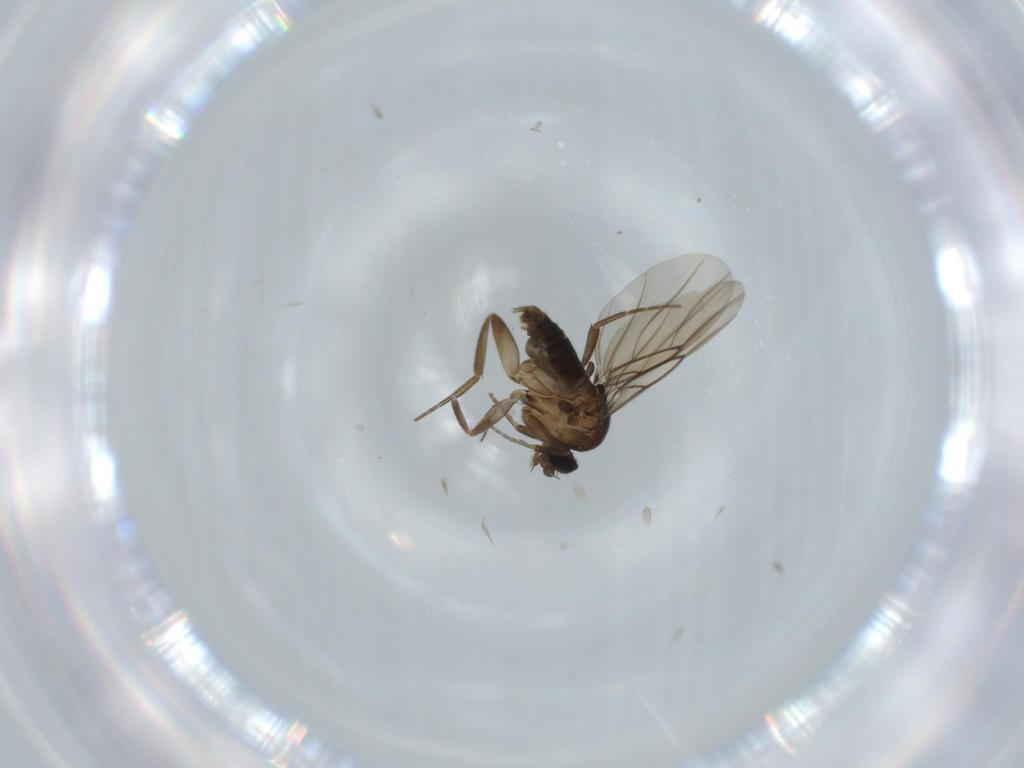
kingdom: Animalia
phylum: Arthropoda
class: Insecta
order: Diptera
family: Phoridae
